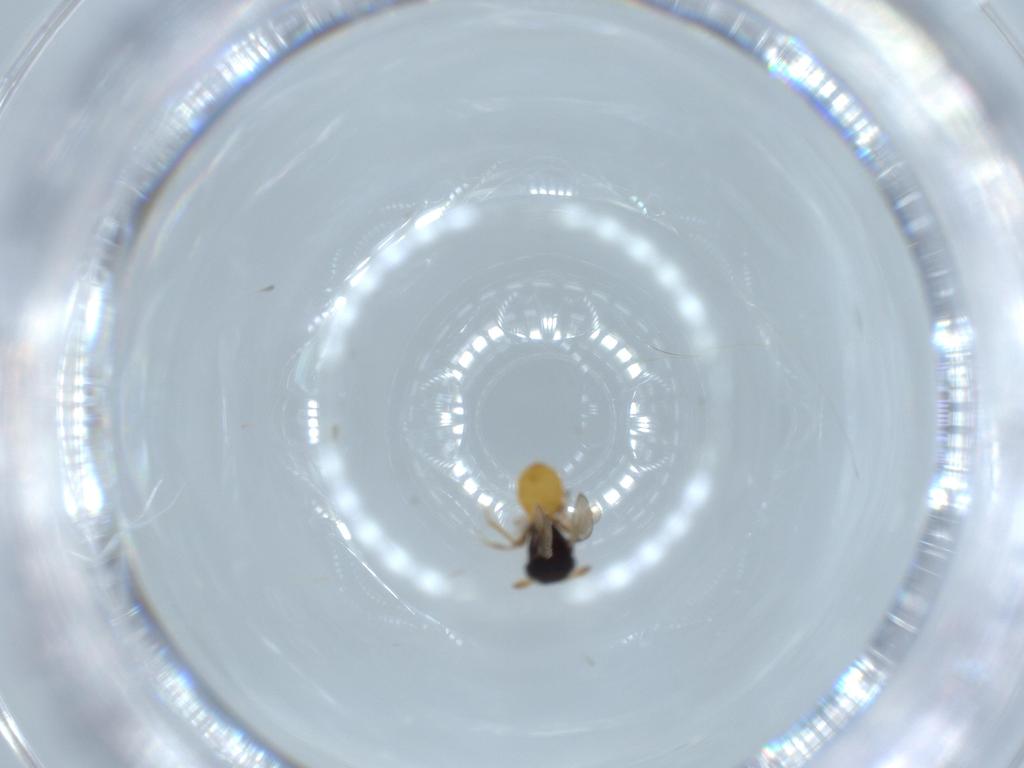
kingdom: Animalia
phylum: Arthropoda
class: Insecta
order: Hymenoptera
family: Scelionidae
